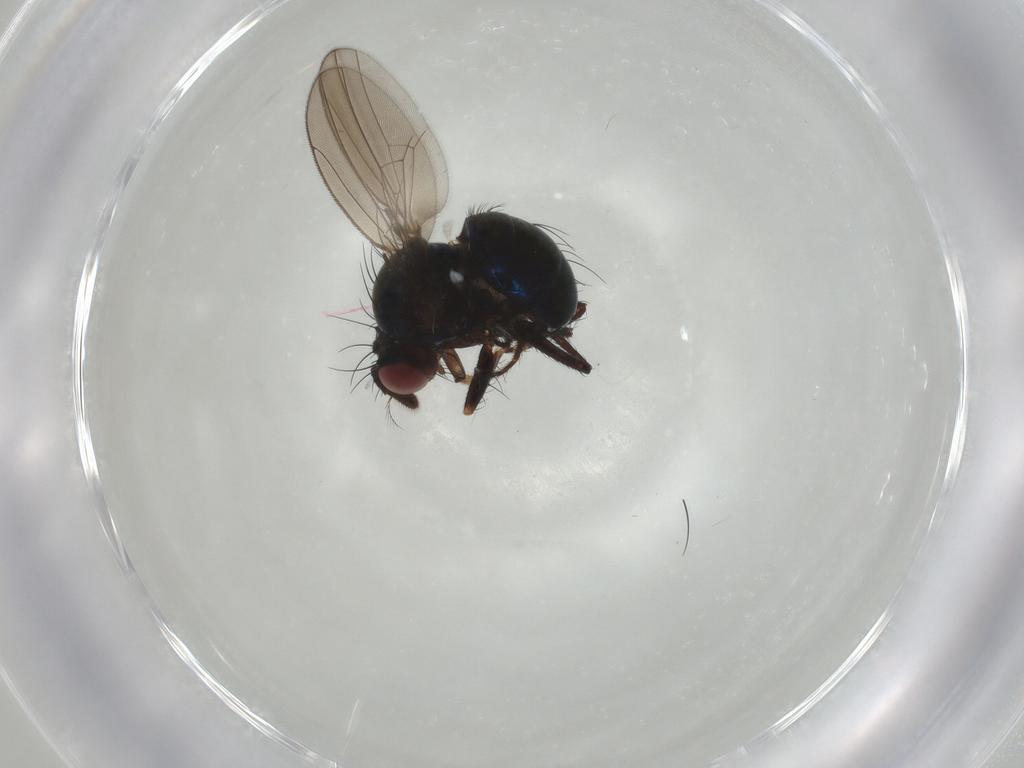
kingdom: Animalia
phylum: Arthropoda
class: Insecta
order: Diptera
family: Ephydridae
